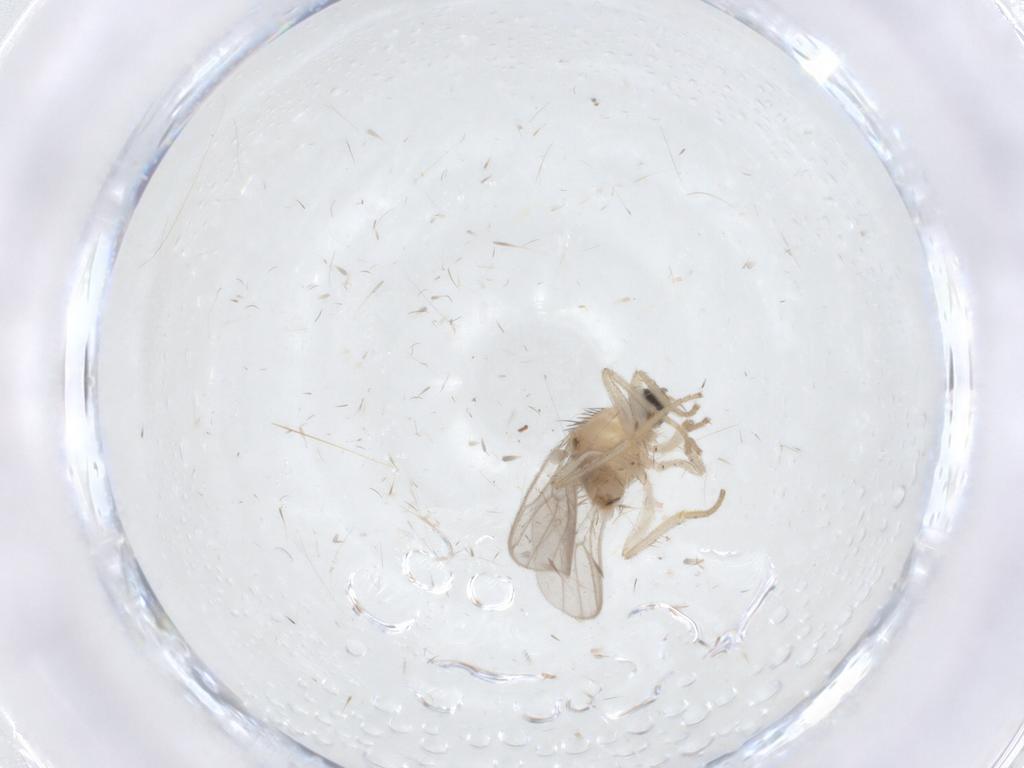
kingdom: Animalia
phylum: Arthropoda
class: Insecta
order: Diptera
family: Hybotidae
